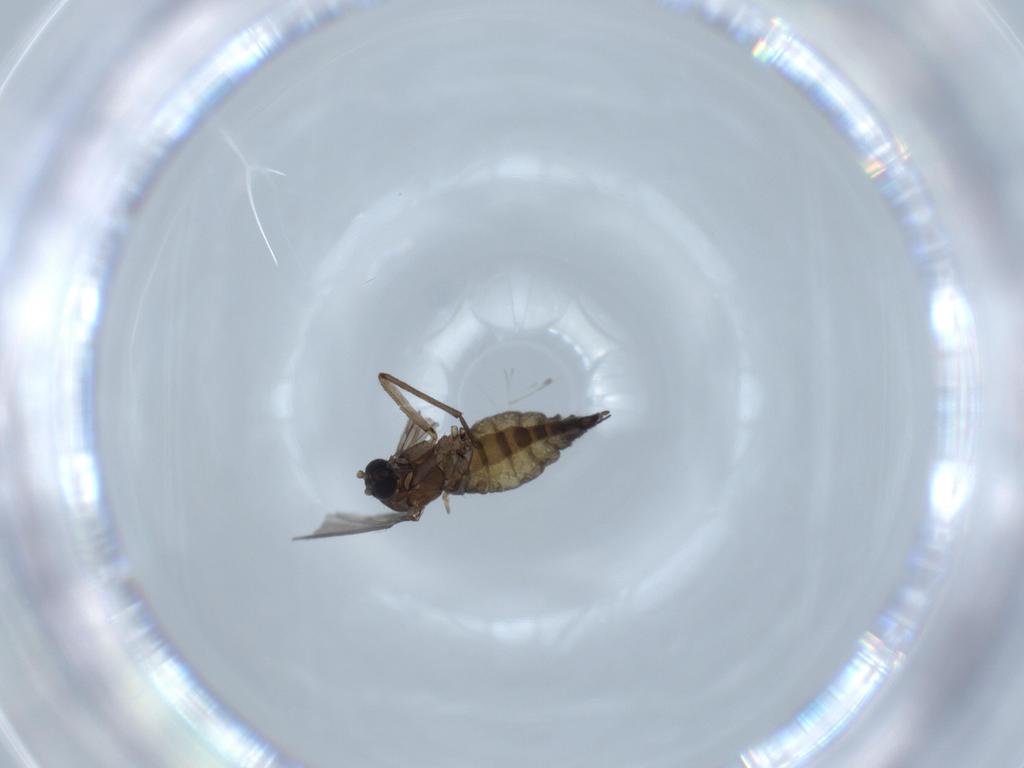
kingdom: Animalia
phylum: Arthropoda
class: Insecta
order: Diptera
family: Sciaridae
